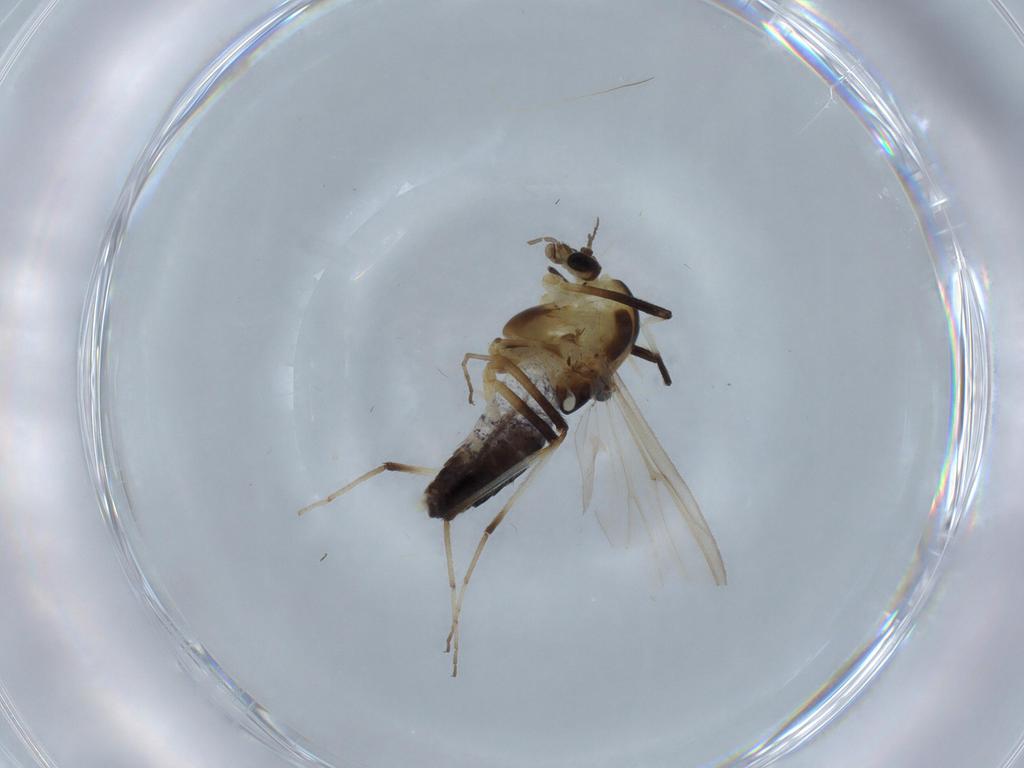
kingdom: Animalia
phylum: Arthropoda
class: Insecta
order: Diptera
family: Chironomidae
